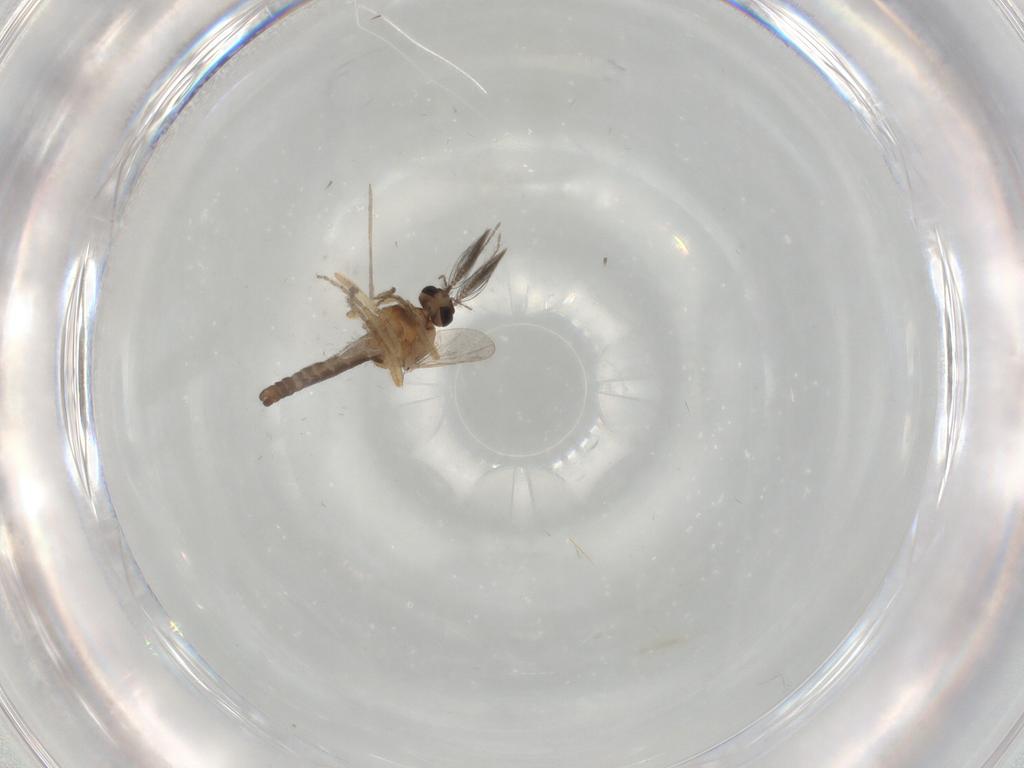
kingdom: Animalia
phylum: Arthropoda
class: Insecta
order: Diptera
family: Ceratopogonidae
